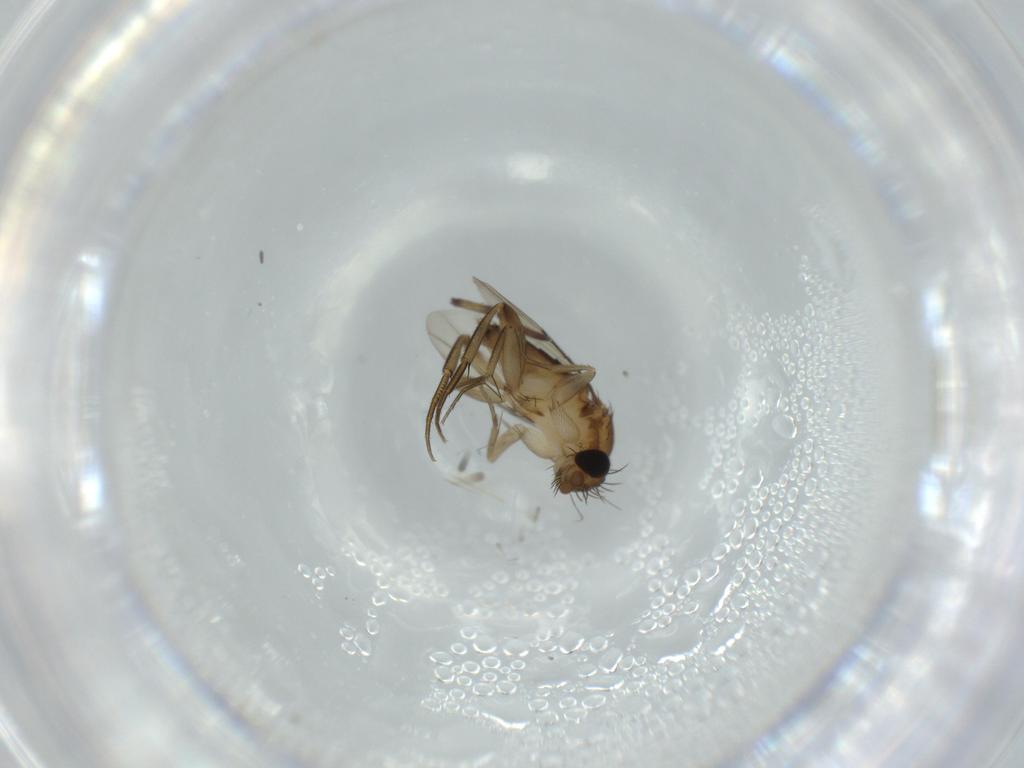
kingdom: Animalia
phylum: Arthropoda
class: Insecta
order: Diptera
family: Phoridae
